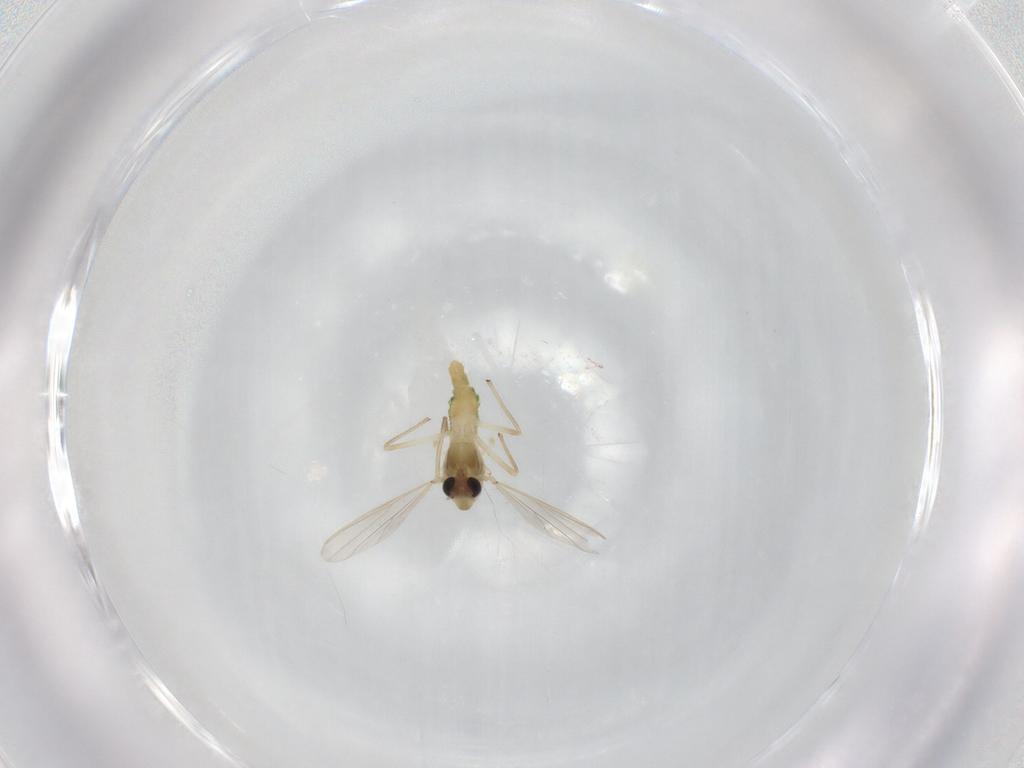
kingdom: Animalia
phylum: Arthropoda
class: Insecta
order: Diptera
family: Chironomidae
